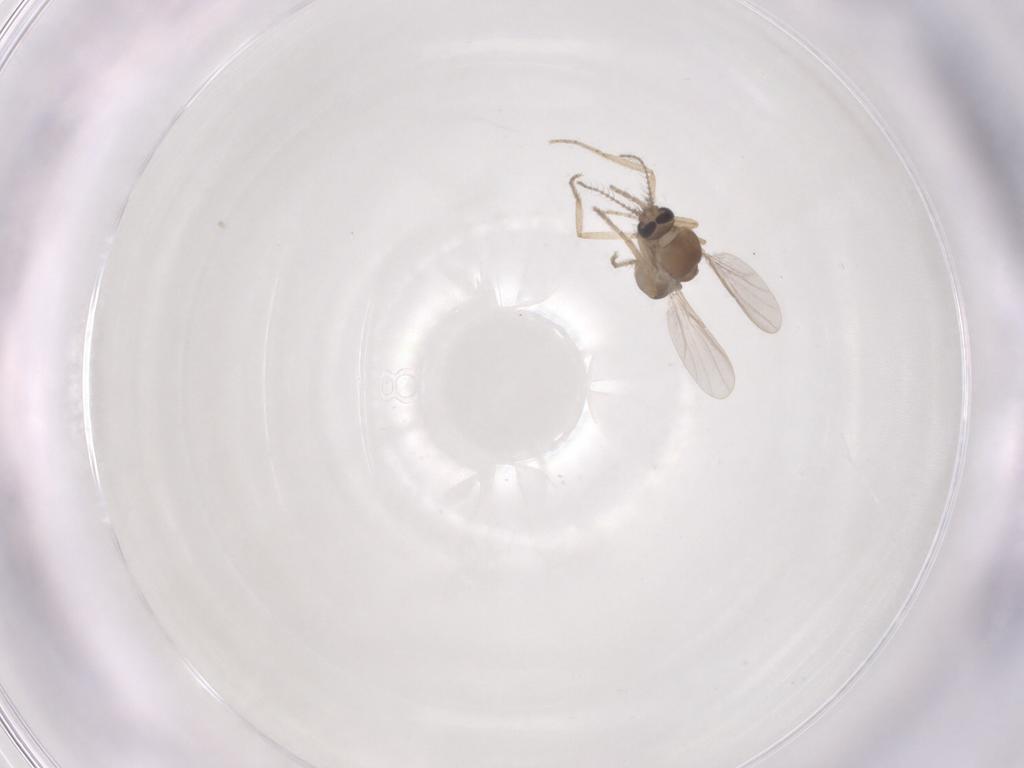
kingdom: Animalia
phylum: Arthropoda
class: Insecta
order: Diptera
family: Ceratopogonidae
